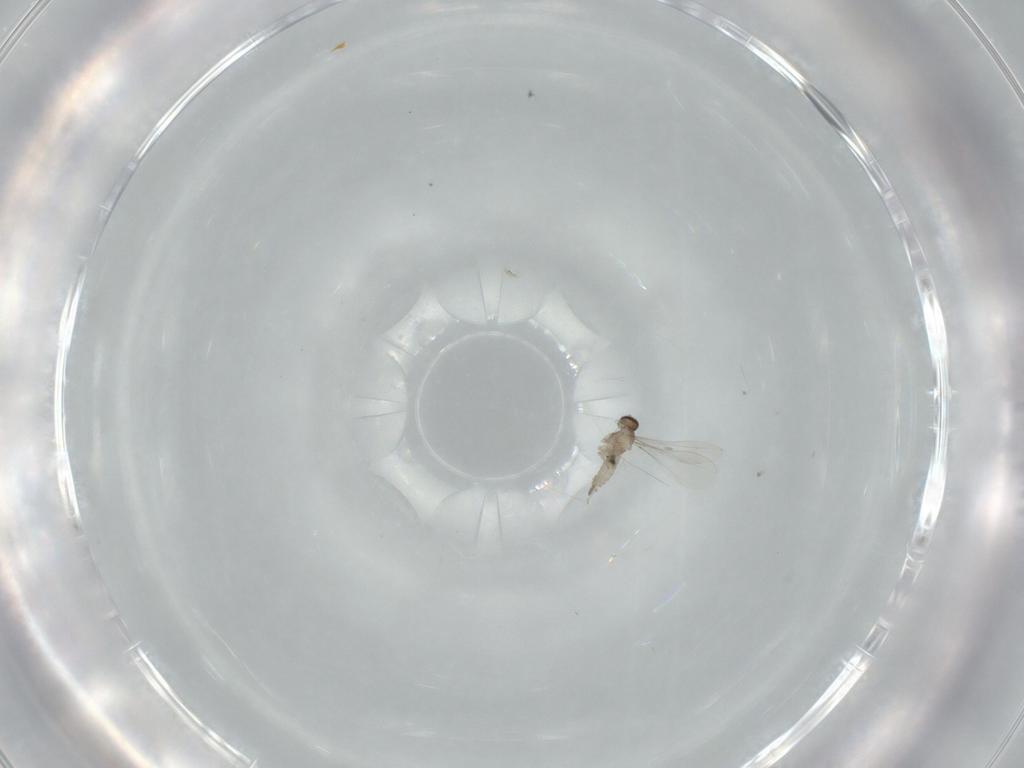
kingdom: Animalia
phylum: Arthropoda
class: Insecta
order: Diptera
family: Cecidomyiidae
